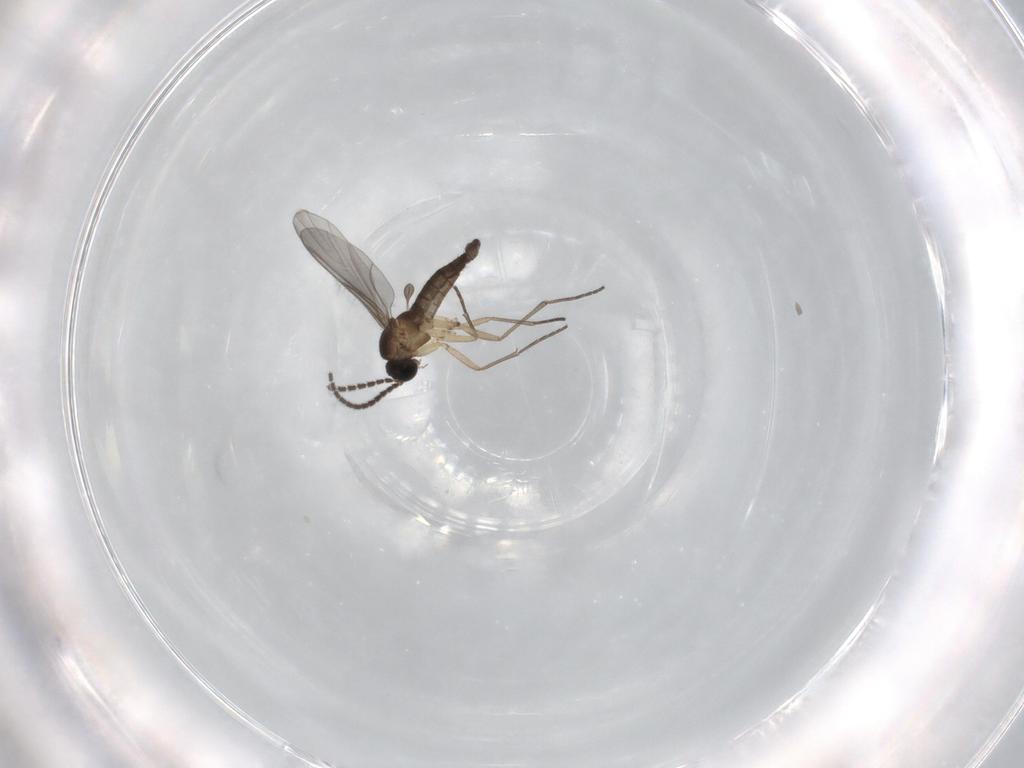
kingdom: Animalia
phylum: Arthropoda
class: Insecta
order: Diptera
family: Sciaridae
